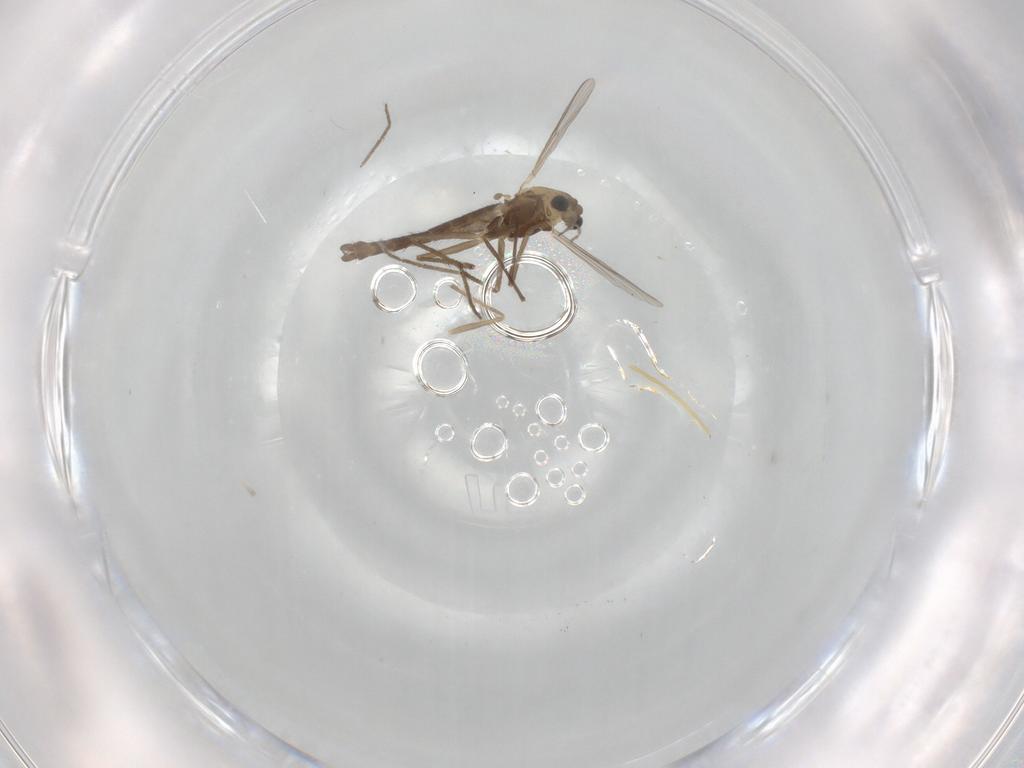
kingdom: Animalia
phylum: Arthropoda
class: Insecta
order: Diptera
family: Chironomidae
